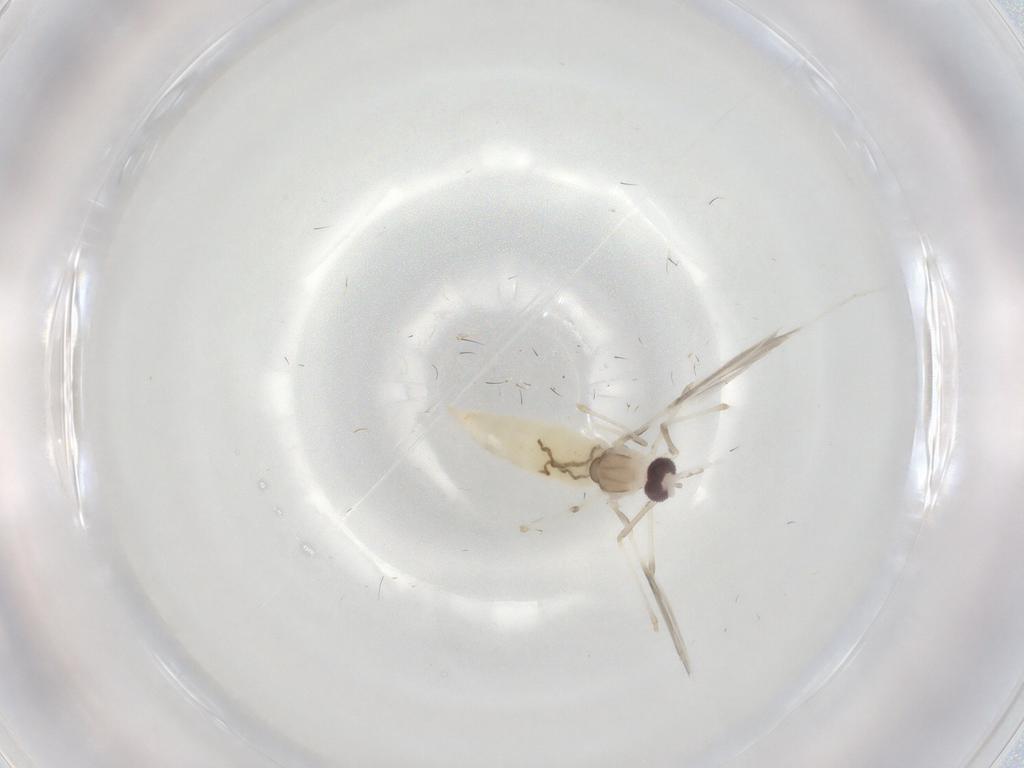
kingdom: Animalia
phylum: Arthropoda
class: Insecta
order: Diptera
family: Cecidomyiidae
